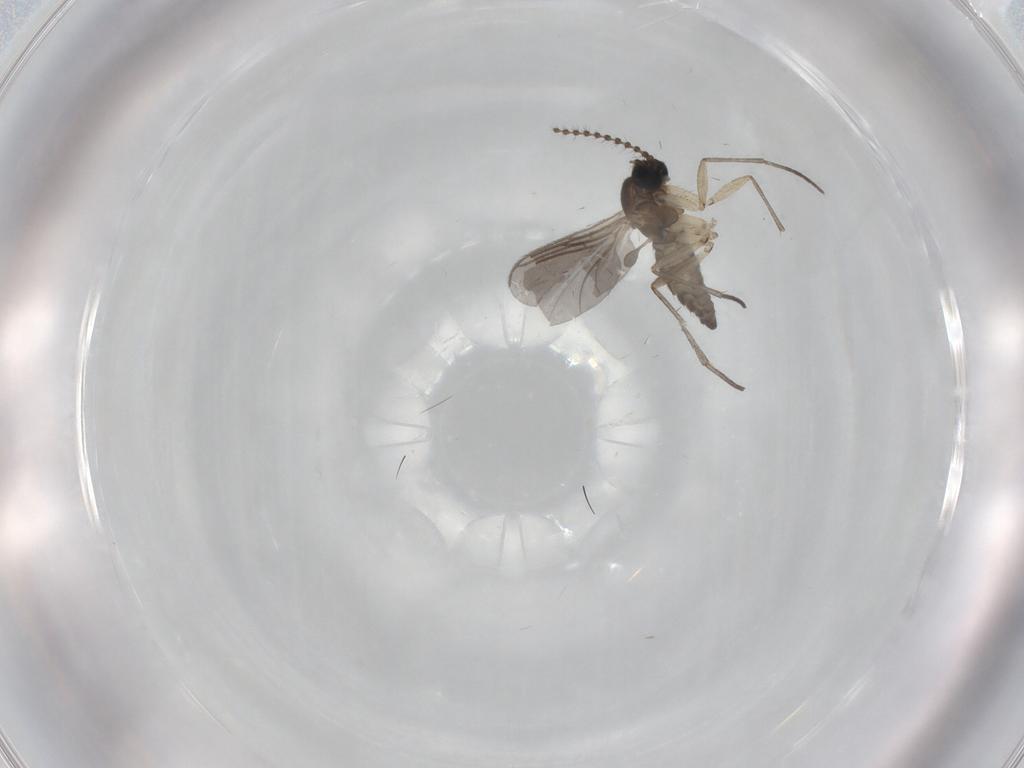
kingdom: Animalia
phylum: Arthropoda
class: Insecta
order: Diptera
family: Sciaridae
